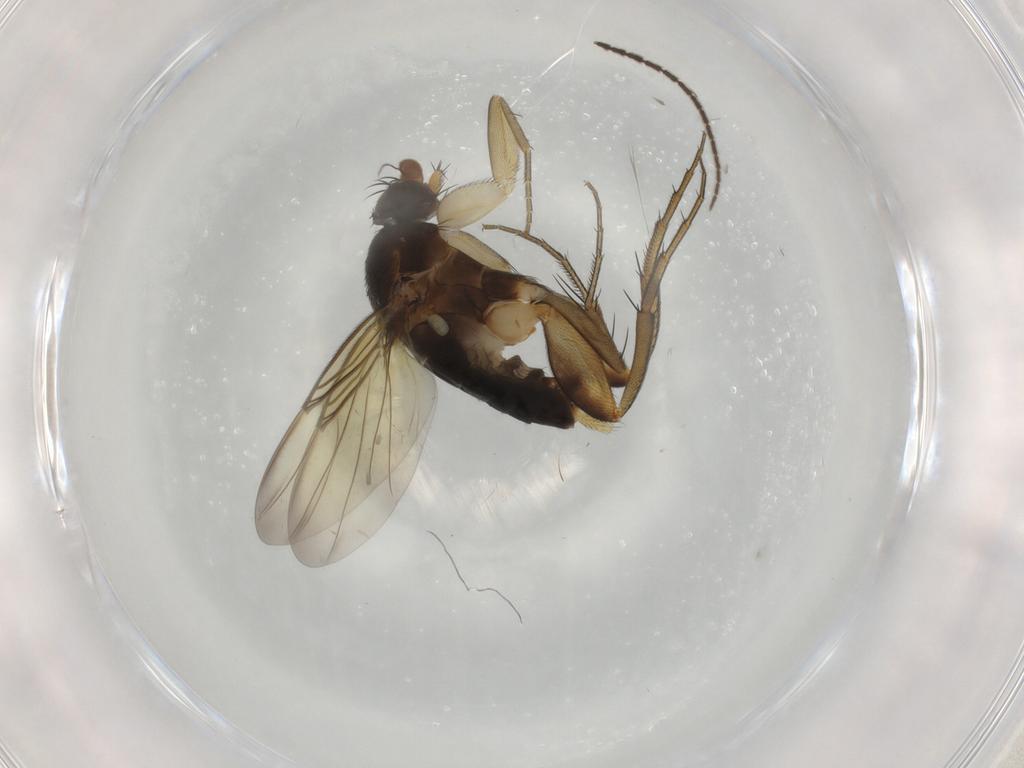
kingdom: Animalia
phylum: Arthropoda
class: Insecta
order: Diptera
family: Phoridae
